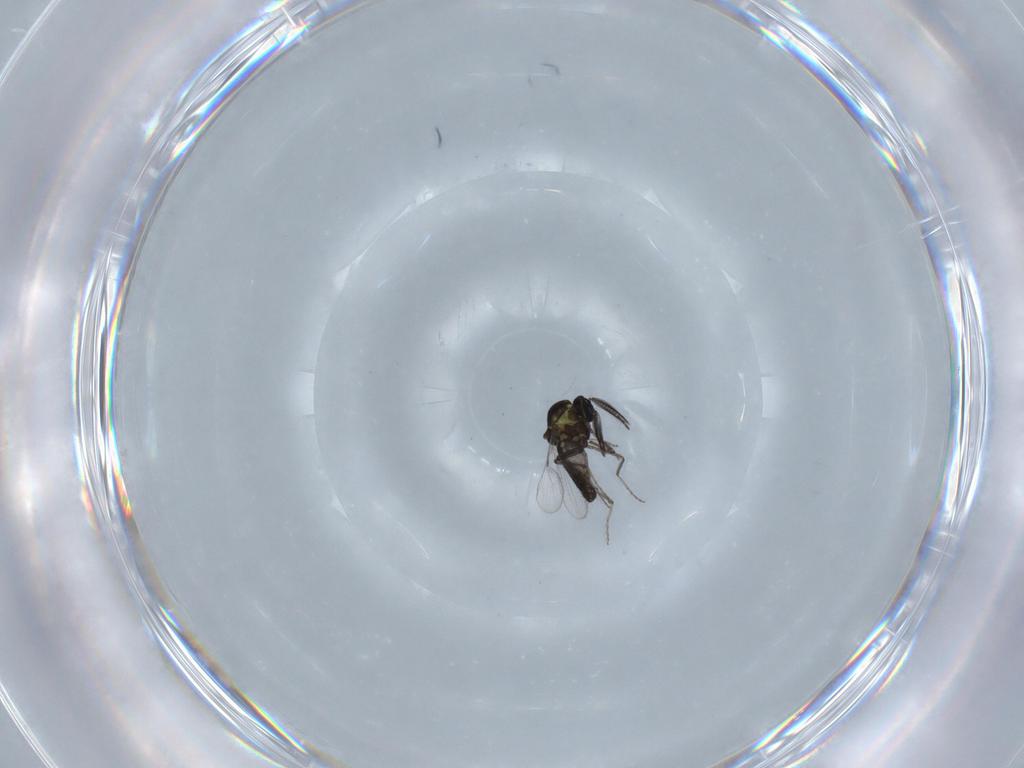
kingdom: Animalia
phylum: Arthropoda
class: Insecta
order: Diptera
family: Ceratopogonidae
